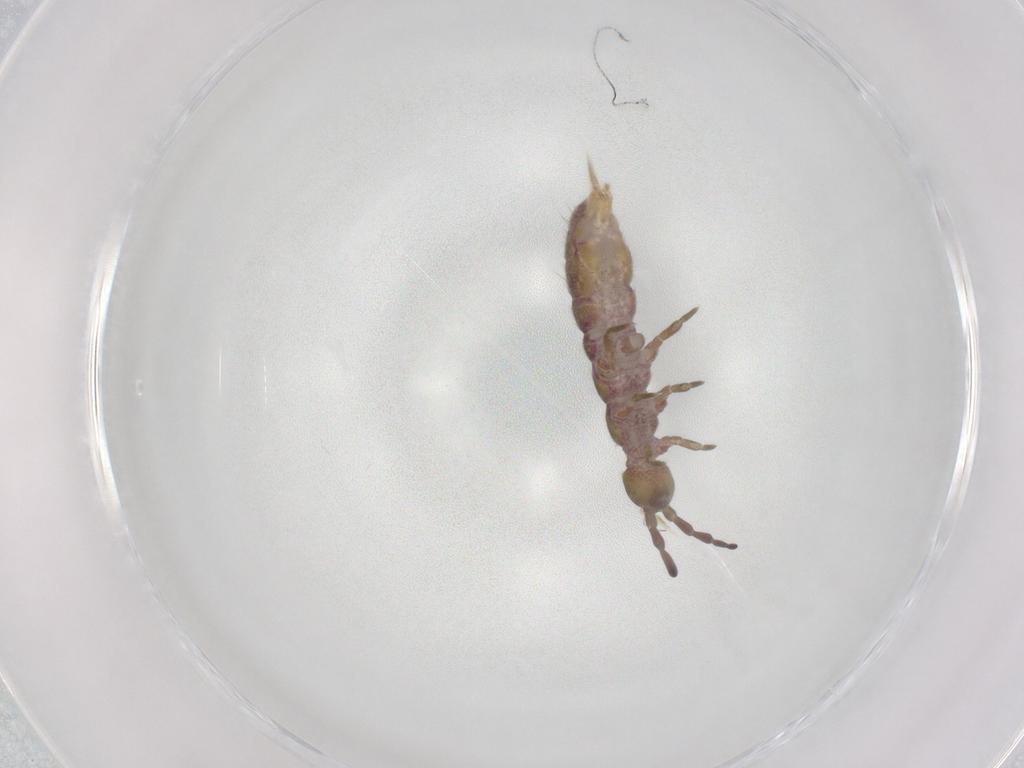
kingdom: Animalia
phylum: Arthropoda
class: Collembola
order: Entomobryomorpha
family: Isotomidae
